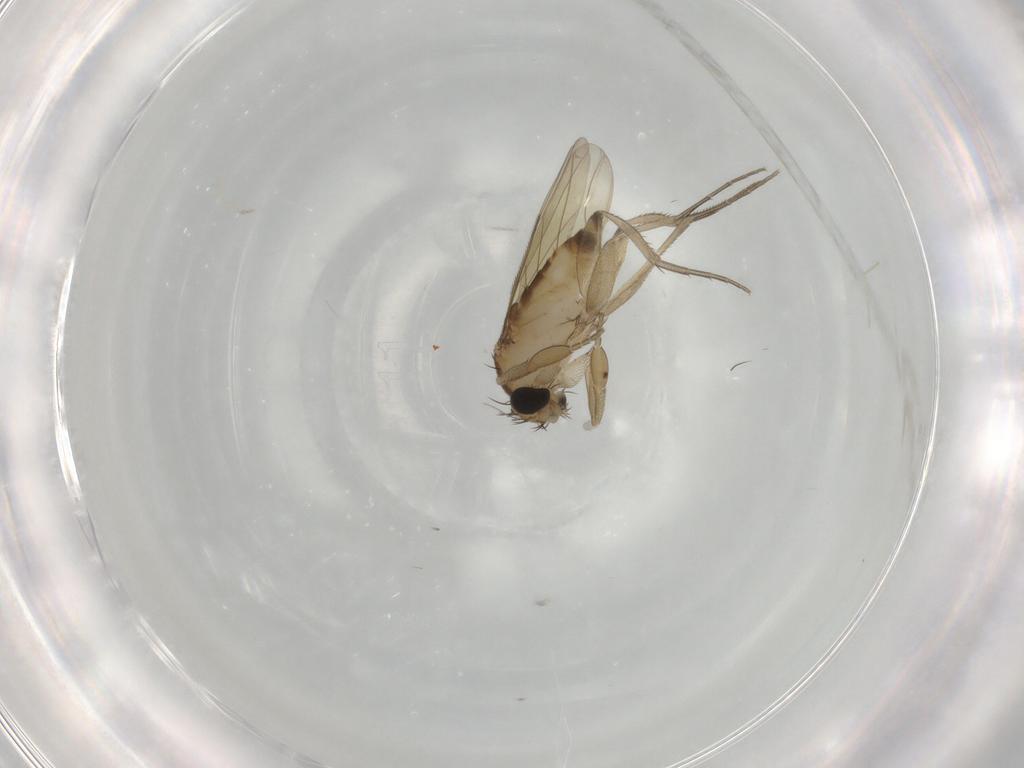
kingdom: Animalia
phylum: Arthropoda
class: Insecta
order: Diptera
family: Phoridae
